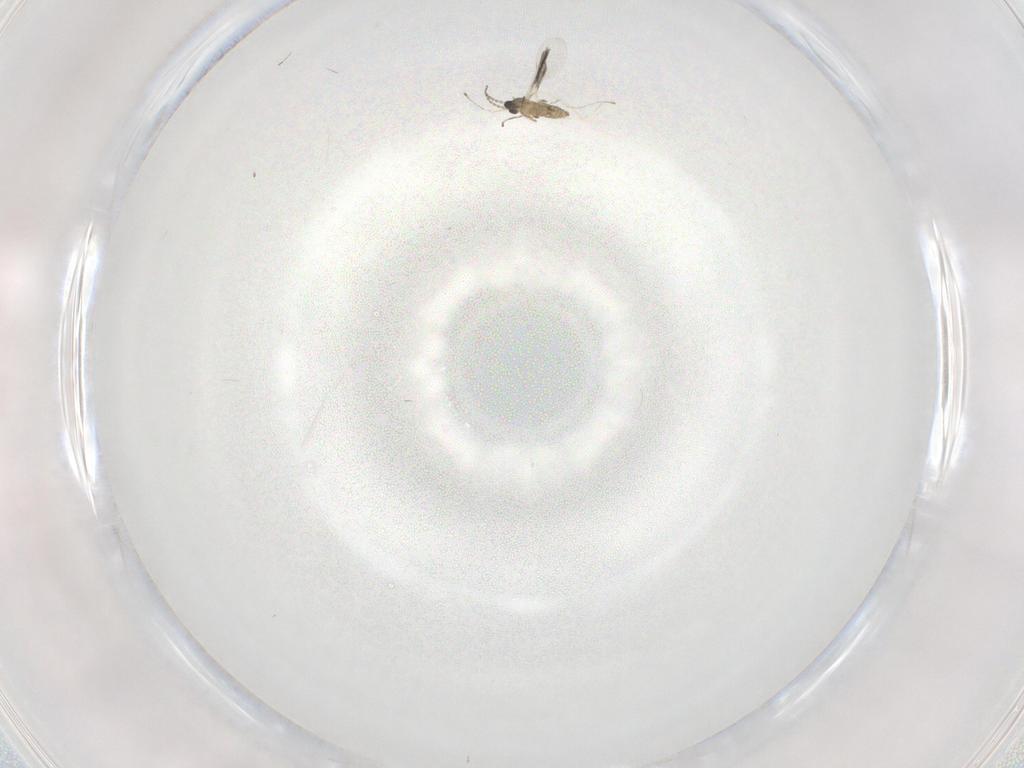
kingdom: Animalia
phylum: Arthropoda
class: Insecta
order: Diptera
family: Cecidomyiidae
